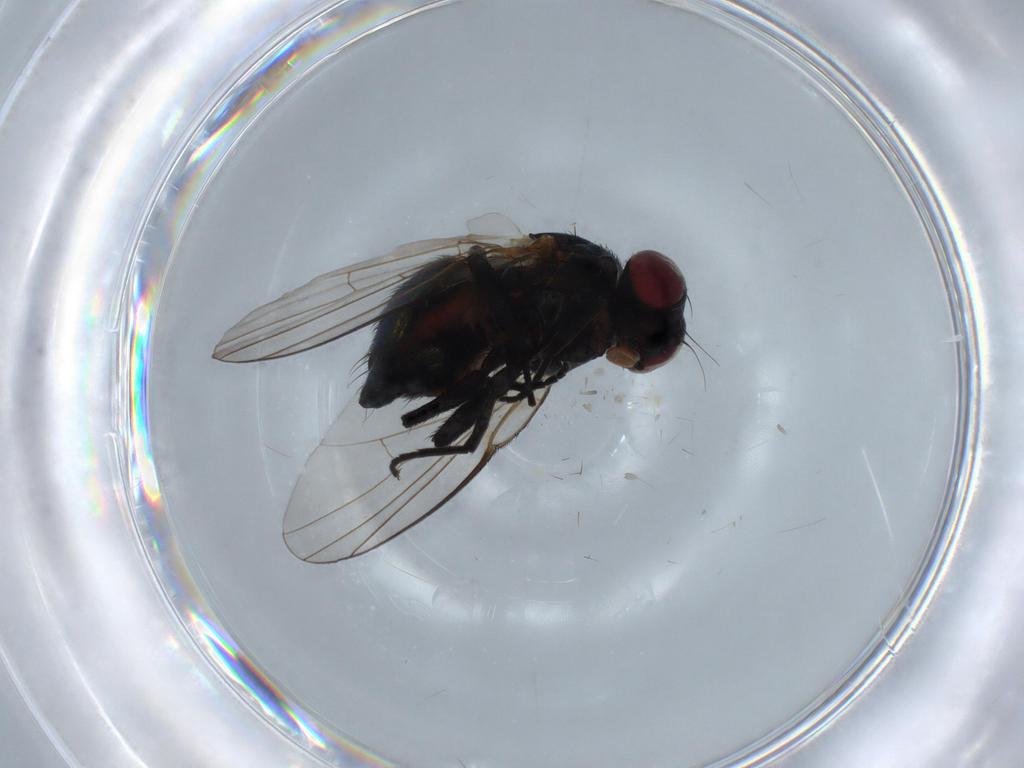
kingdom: Animalia
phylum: Arthropoda
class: Insecta
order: Diptera
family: Agromyzidae
